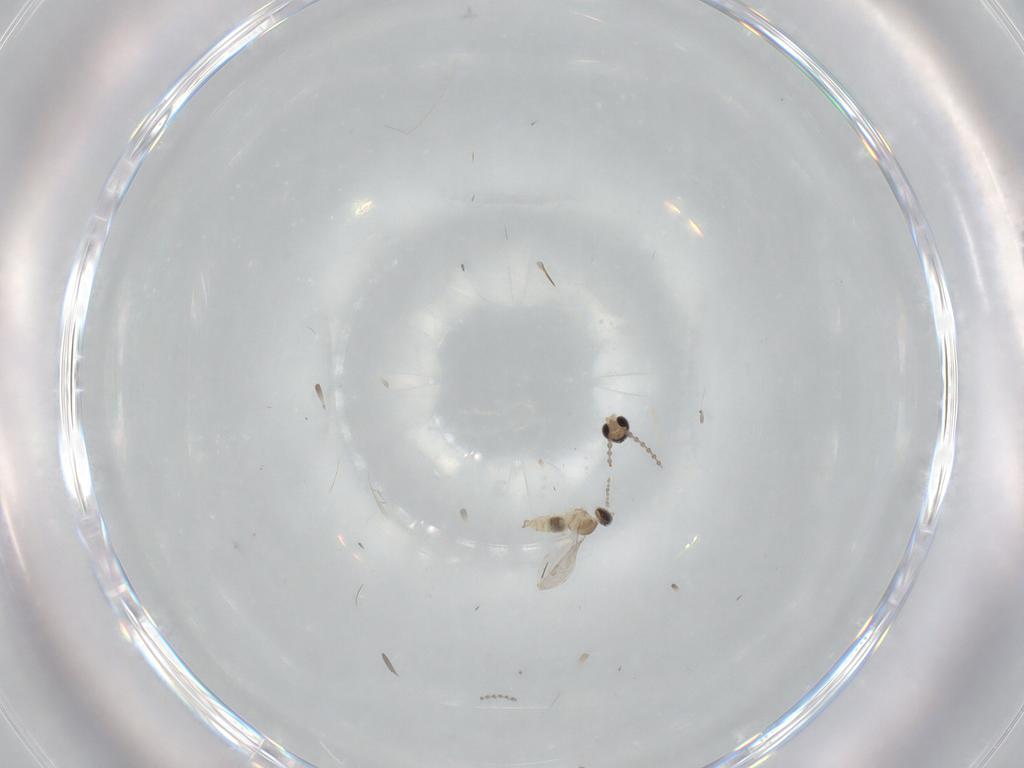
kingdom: Animalia
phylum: Arthropoda
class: Insecta
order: Diptera
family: Cecidomyiidae
